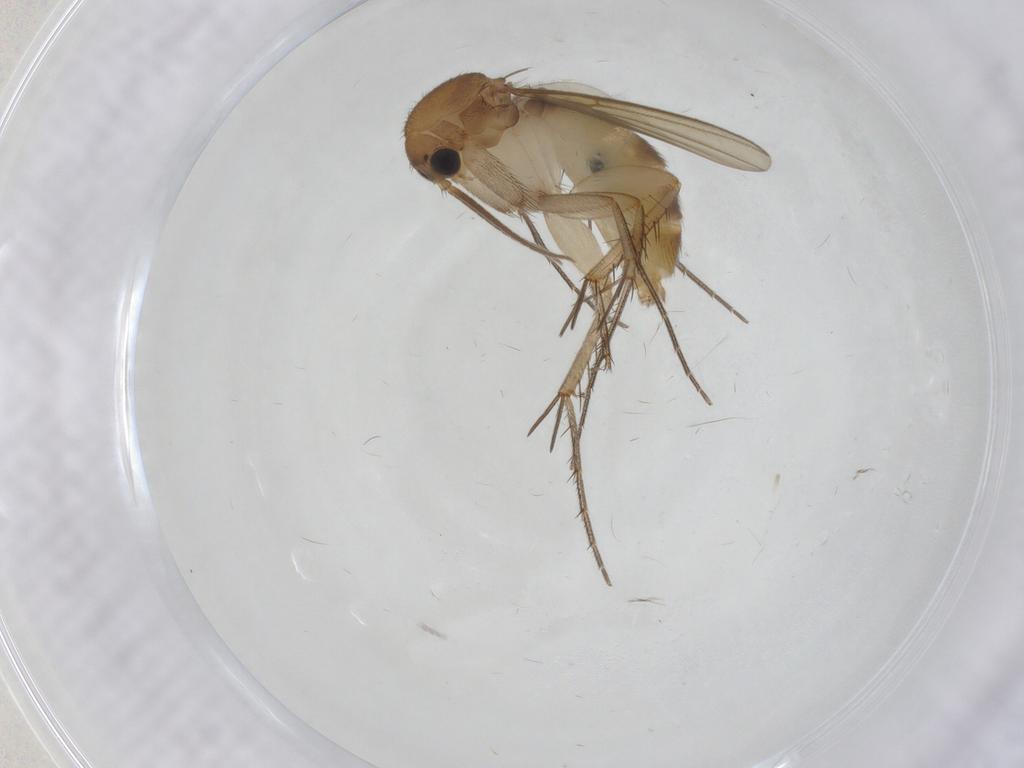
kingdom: Animalia
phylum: Arthropoda
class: Insecta
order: Diptera
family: Mycetophilidae
